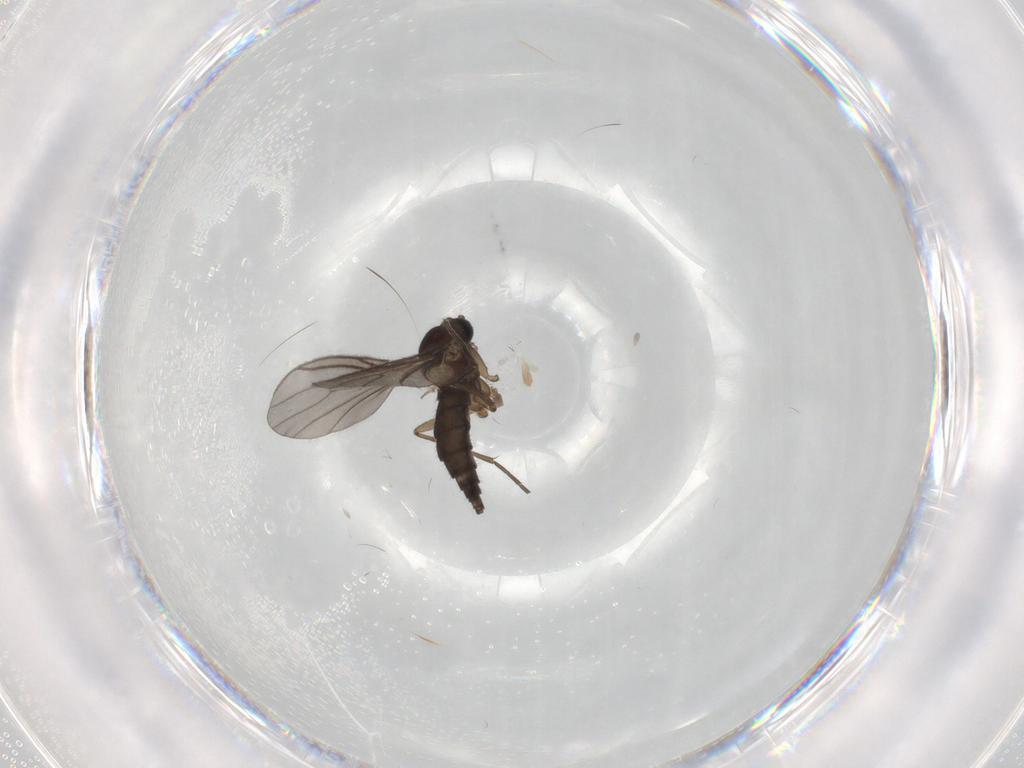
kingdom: Animalia
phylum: Arthropoda
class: Insecta
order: Diptera
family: Sciaridae
